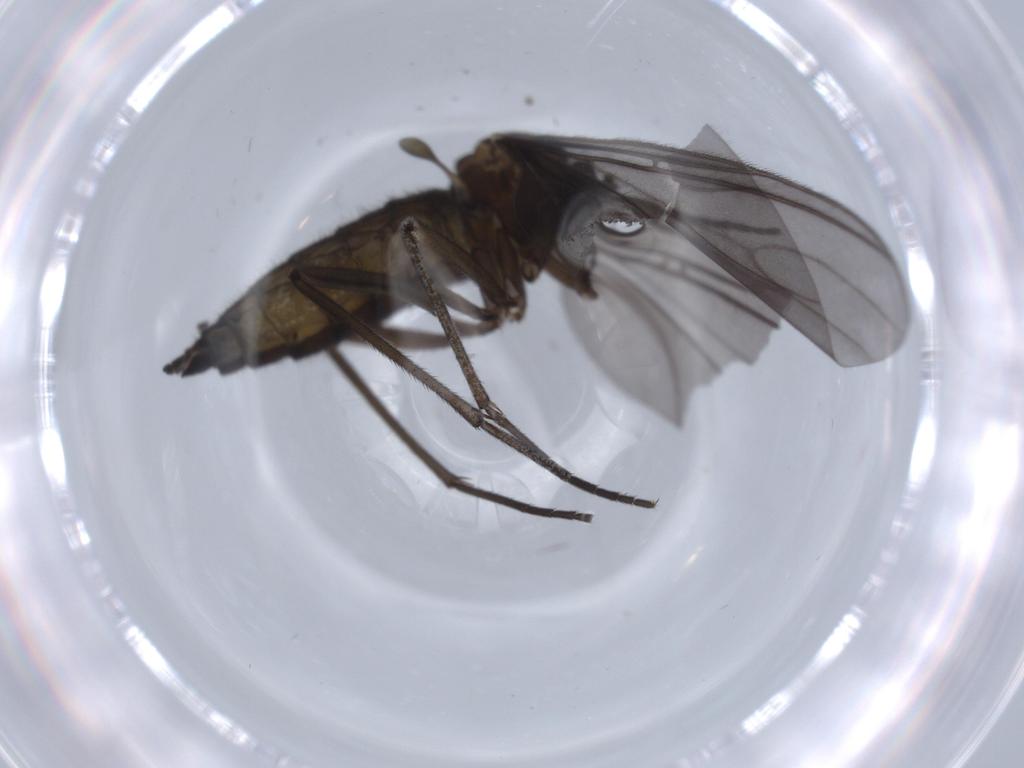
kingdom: Animalia
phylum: Arthropoda
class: Insecta
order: Diptera
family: Sciaridae
